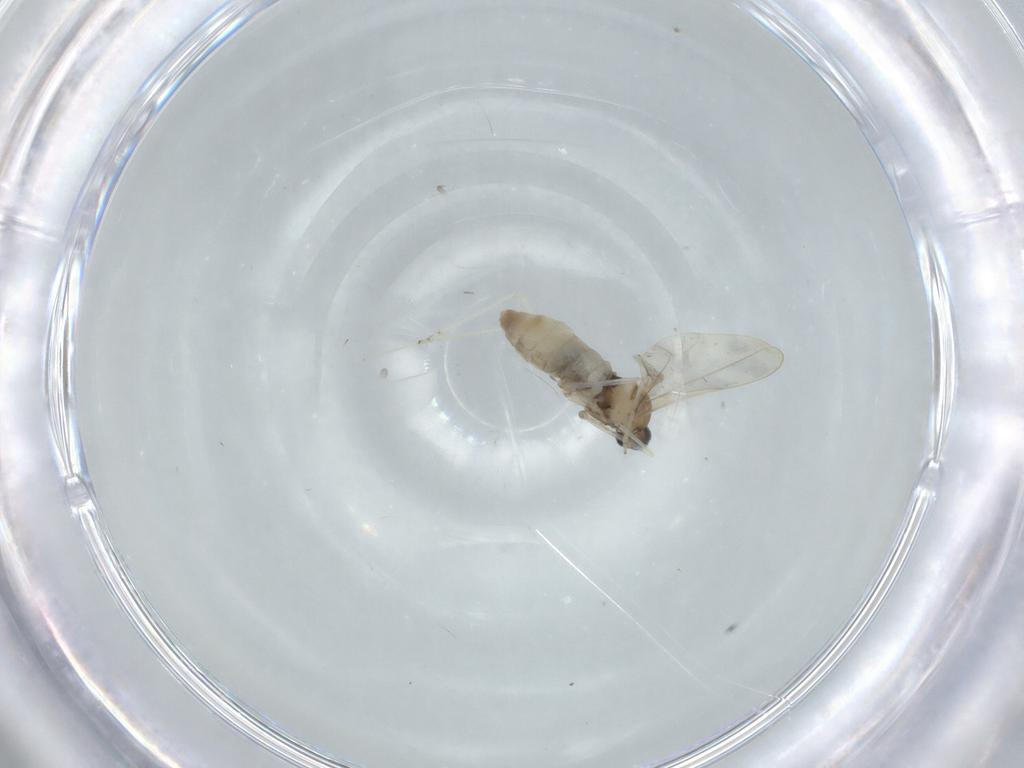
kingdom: Animalia
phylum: Arthropoda
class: Insecta
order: Diptera
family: Cecidomyiidae
